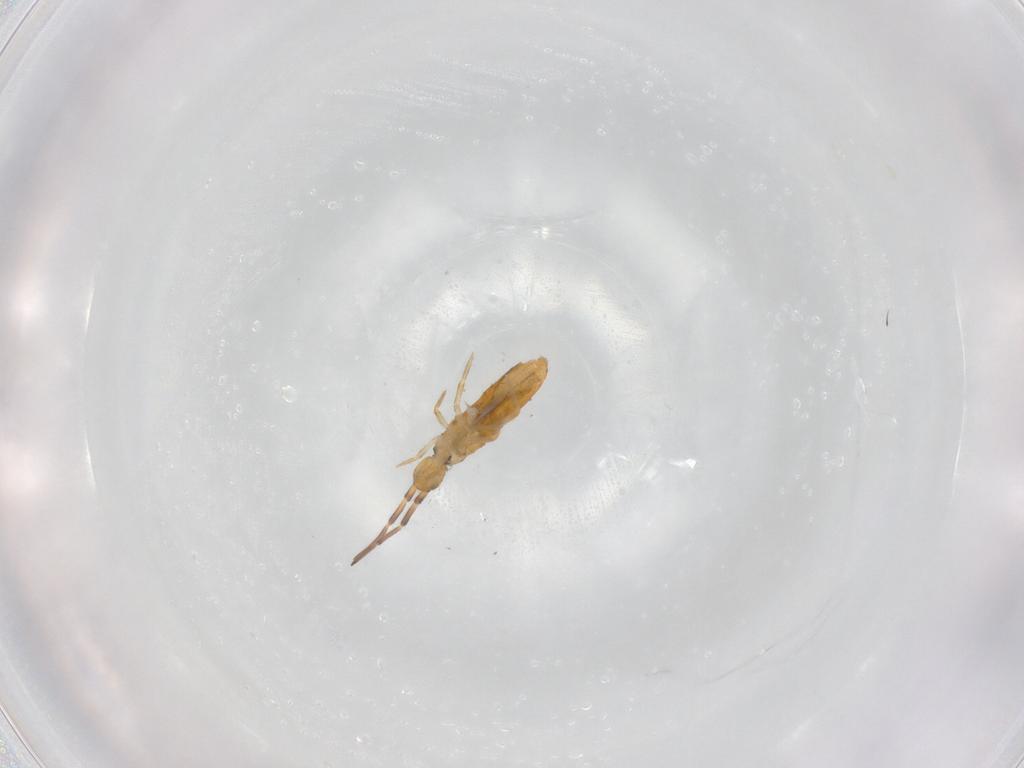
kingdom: Animalia
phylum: Arthropoda
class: Collembola
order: Entomobryomorpha
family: Entomobryidae
